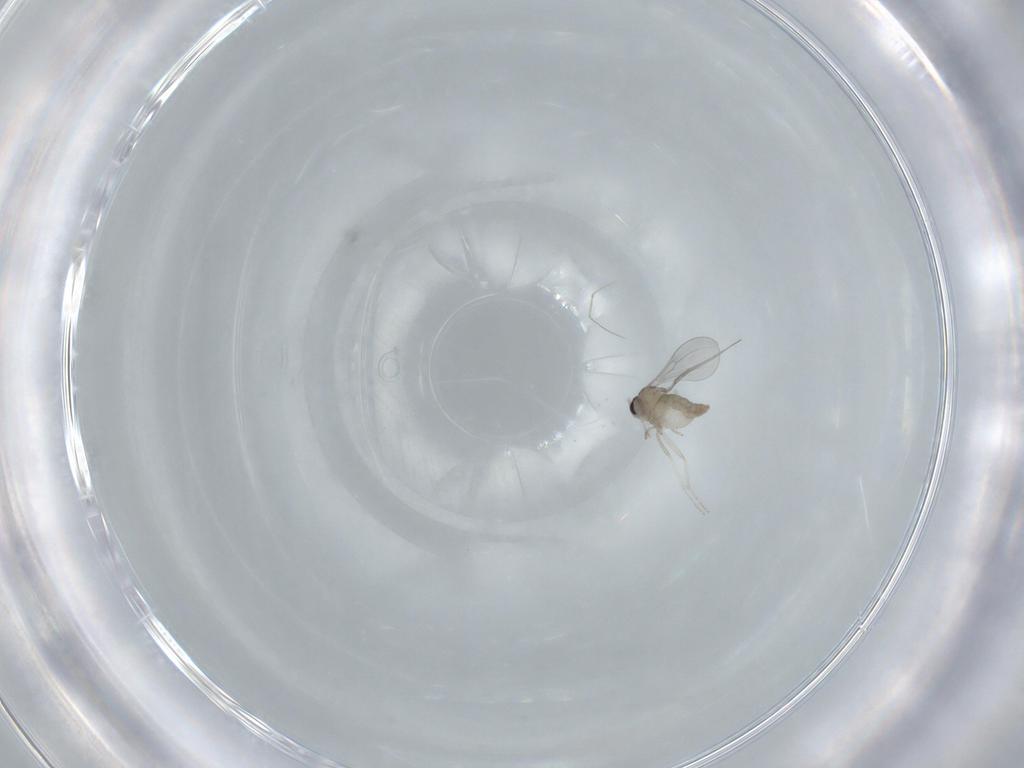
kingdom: Animalia
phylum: Arthropoda
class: Insecta
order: Diptera
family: Cecidomyiidae
